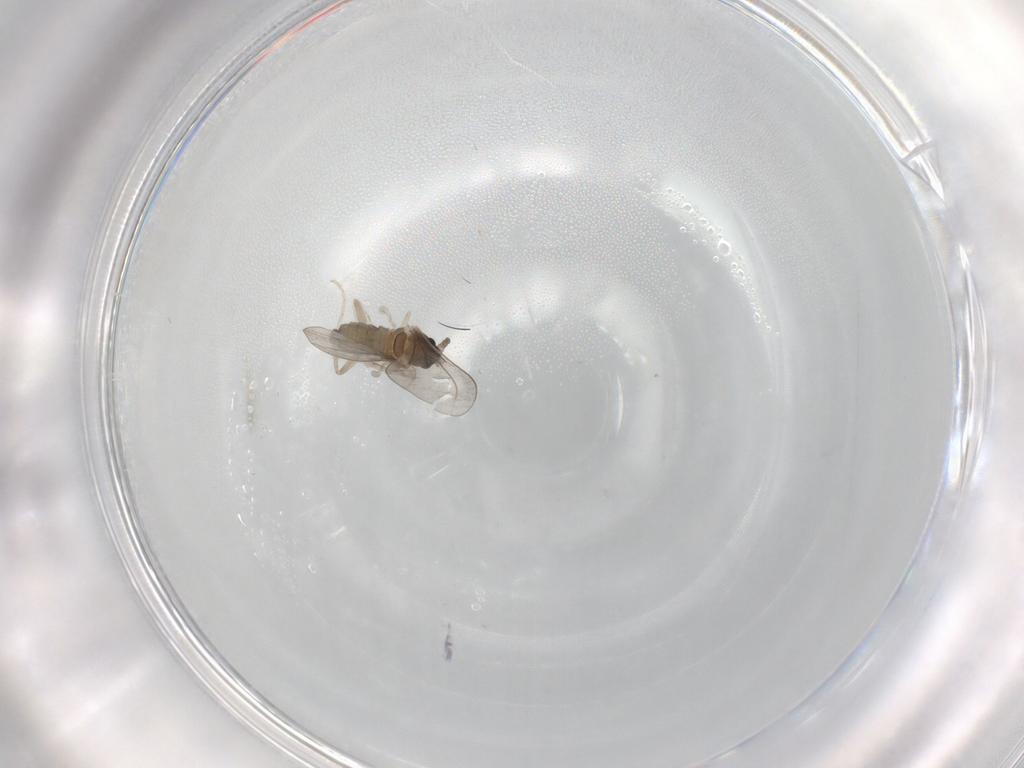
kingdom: Animalia
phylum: Arthropoda
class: Insecta
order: Diptera
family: Cecidomyiidae
